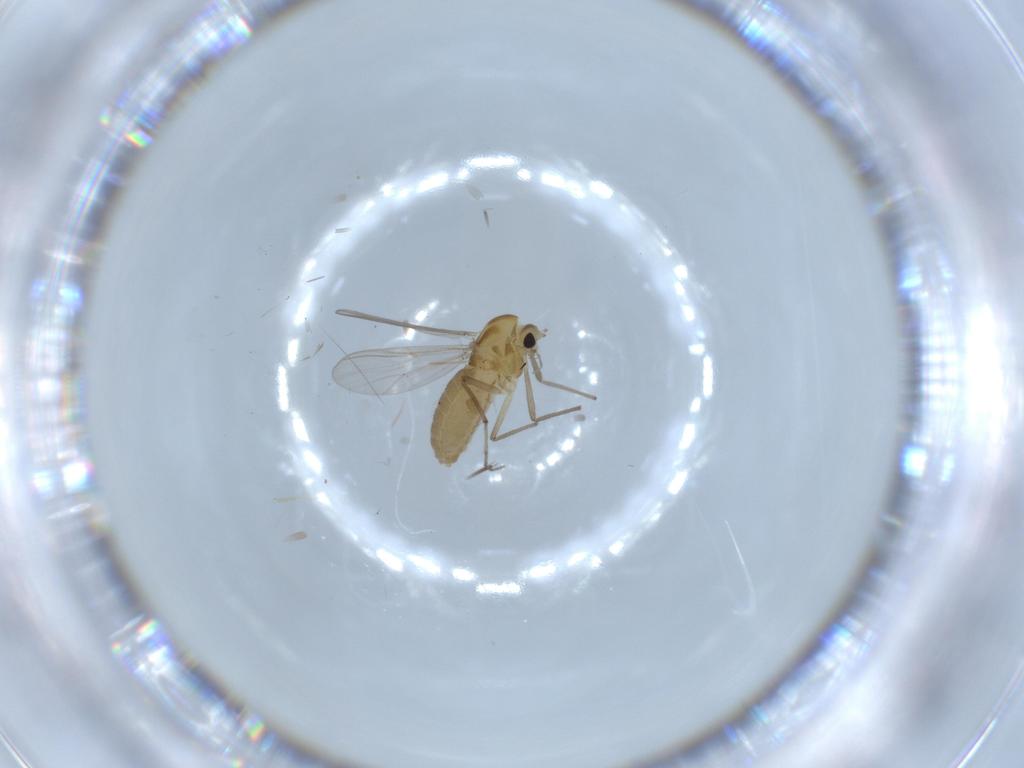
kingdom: Animalia
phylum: Arthropoda
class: Insecta
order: Diptera
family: Chironomidae
